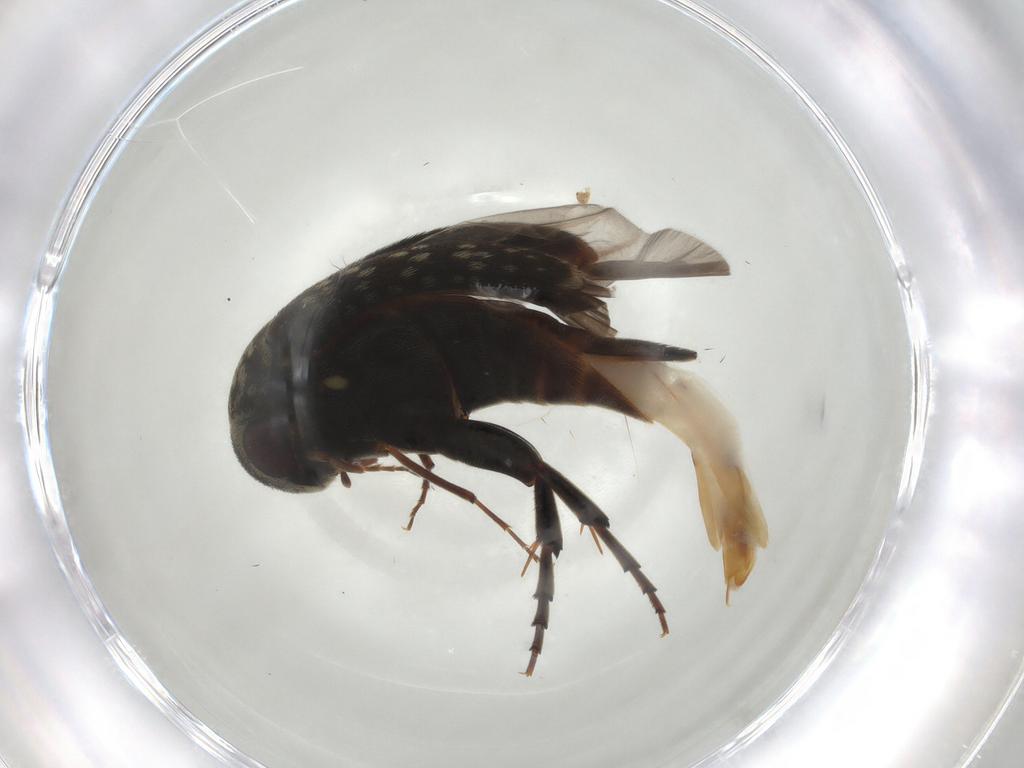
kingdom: Animalia
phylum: Arthropoda
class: Insecta
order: Coleoptera
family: Mordellidae
